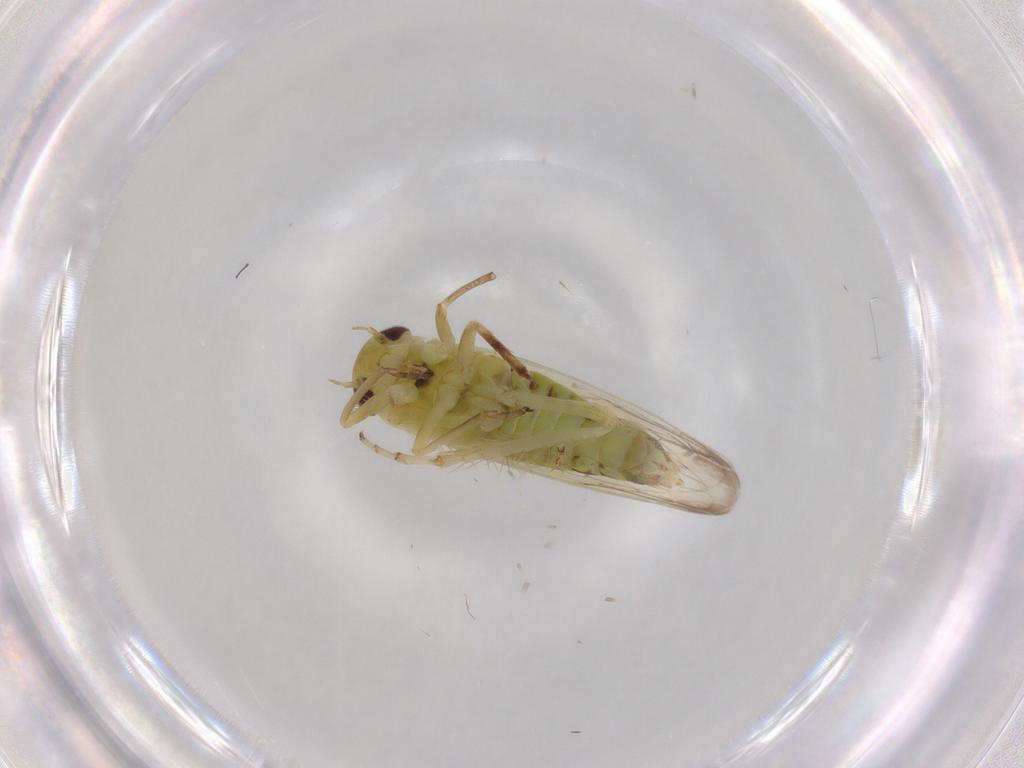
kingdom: Animalia
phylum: Arthropoda
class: Insecta
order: Hemiptera
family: Cicadellidae
